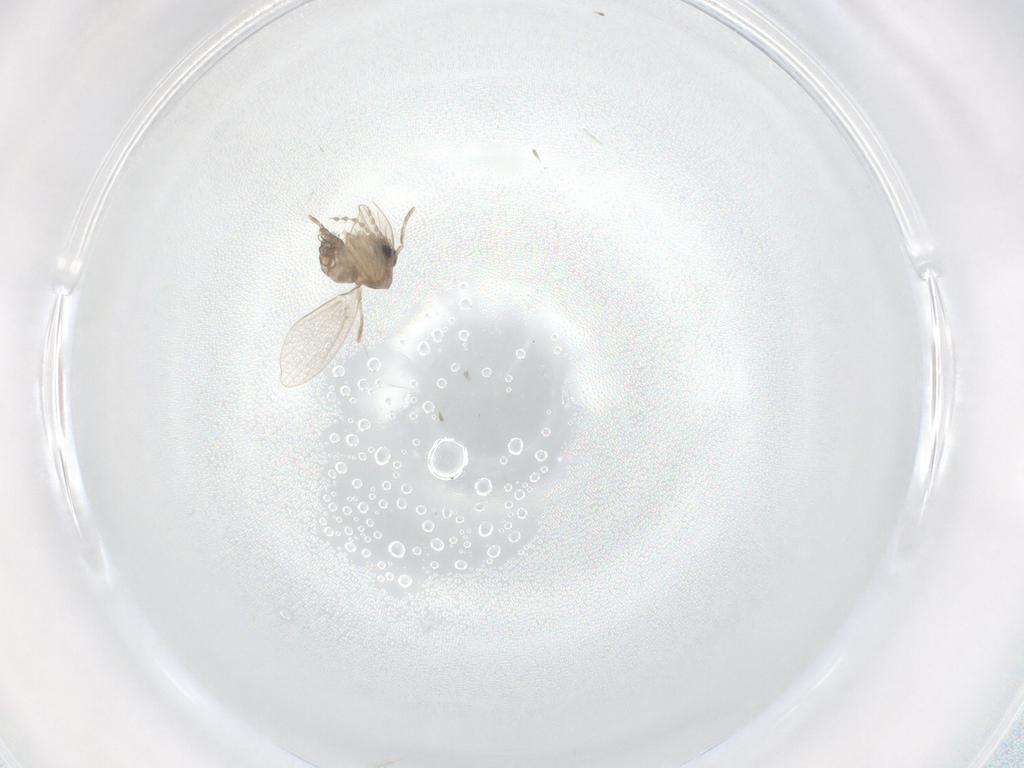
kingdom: Animalia
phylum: Arthropoda
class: Insecta
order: Diptera
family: Psychodidae
